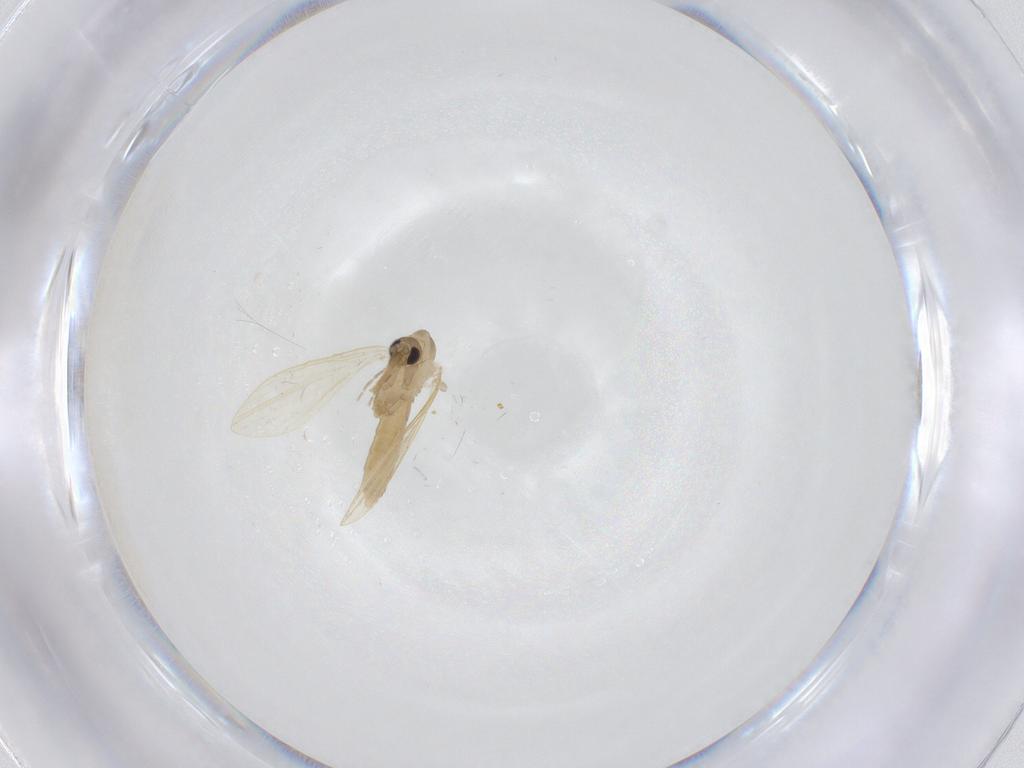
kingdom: Animalia
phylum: Arthropoda
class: Insecta
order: Diptera
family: Psychodidae
